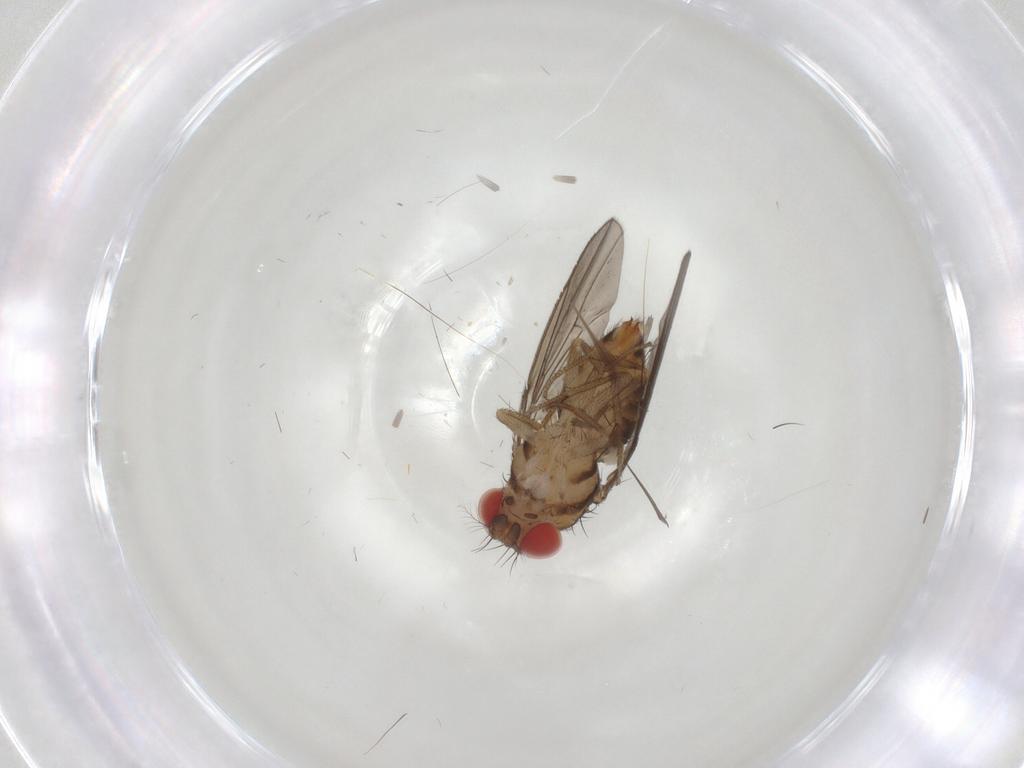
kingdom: Animalia
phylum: Arthropoda
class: Insecta
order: Diptera
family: Drosophilidae
